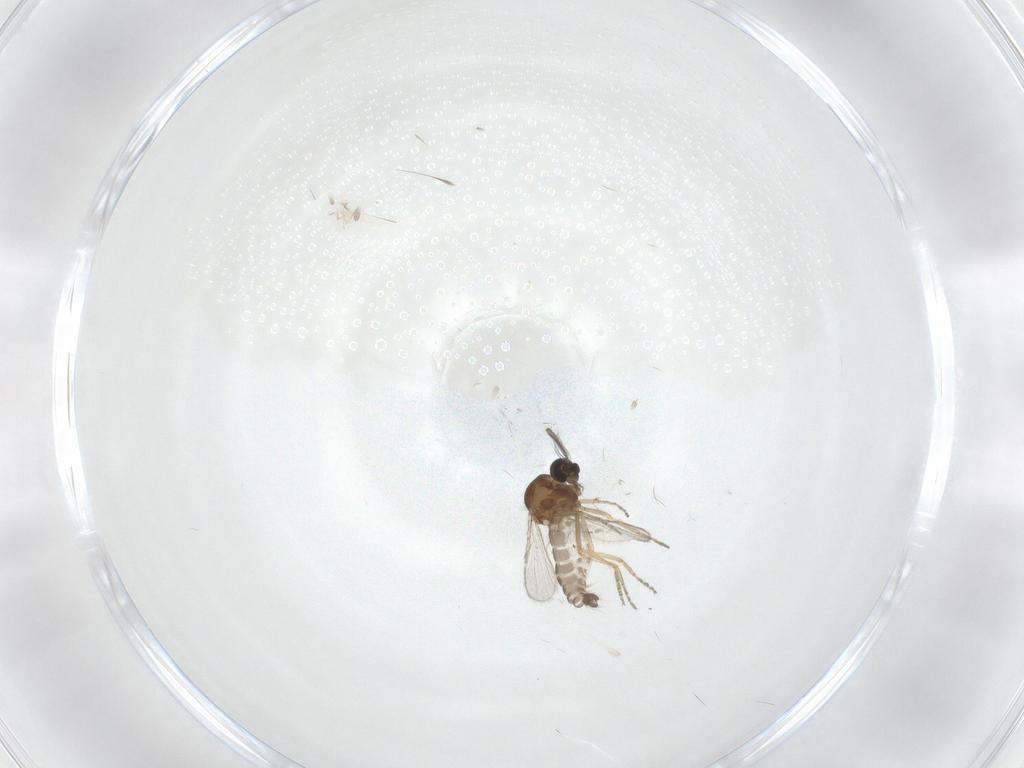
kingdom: Animalia
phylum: Arthropoda
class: Insecta
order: Diptera
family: Ceratopogonidae
